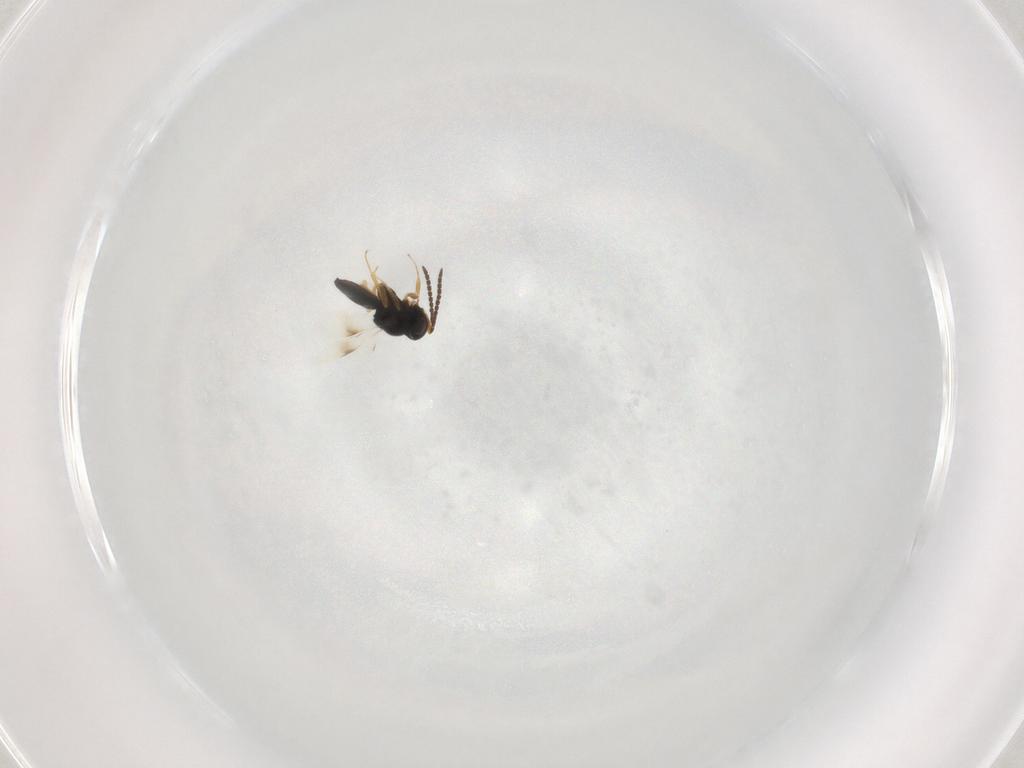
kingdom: Animalia
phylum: Arthropoda
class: Insecta
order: Hymenoptera
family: Scelionidae
